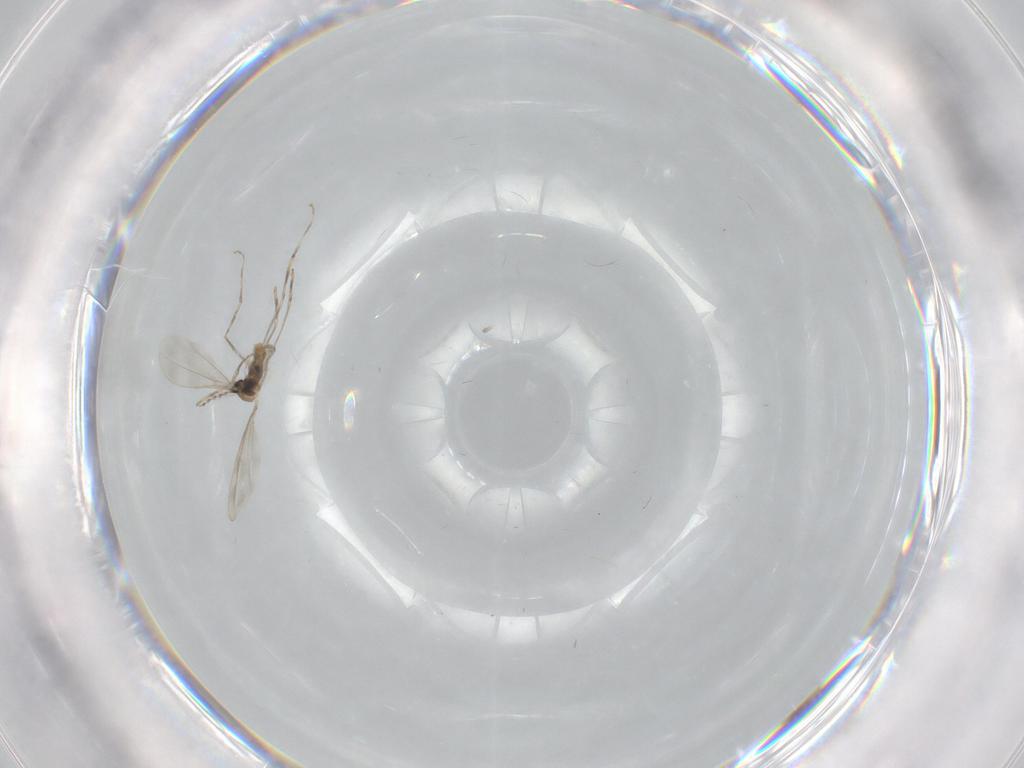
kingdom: Animalia
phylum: Arthropoda
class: Insecta
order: Diptera
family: Cecidomyiidae
